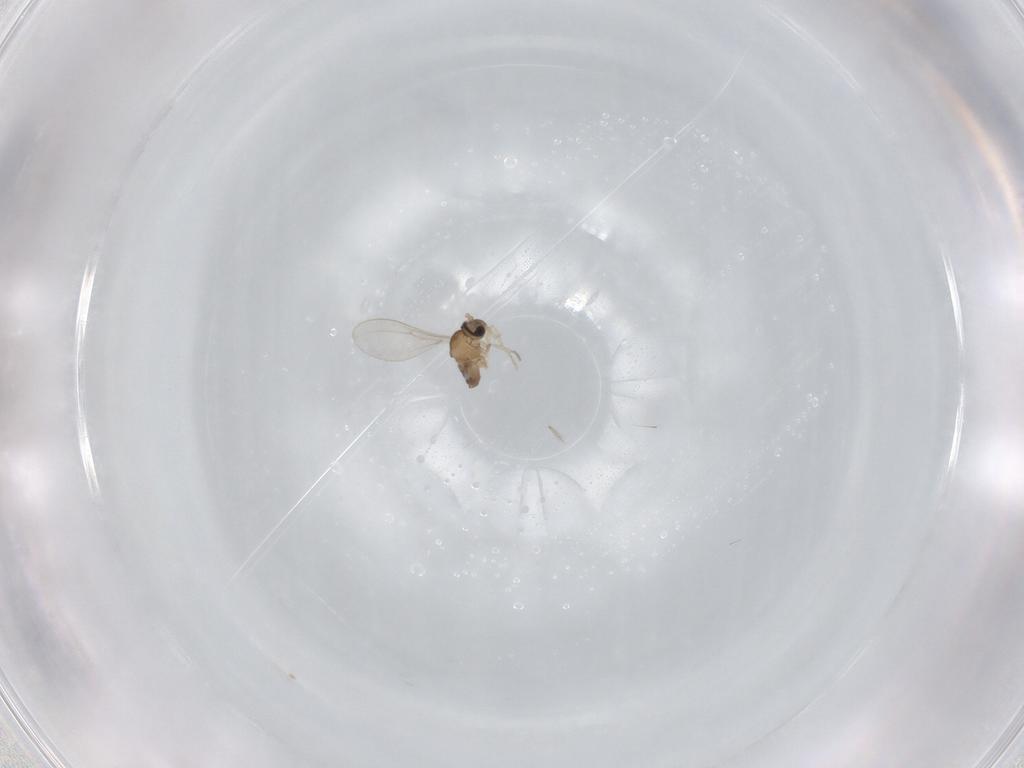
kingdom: Animalia
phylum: Arthropoda
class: Insecta
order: Diptera
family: Cecidomyiidae
